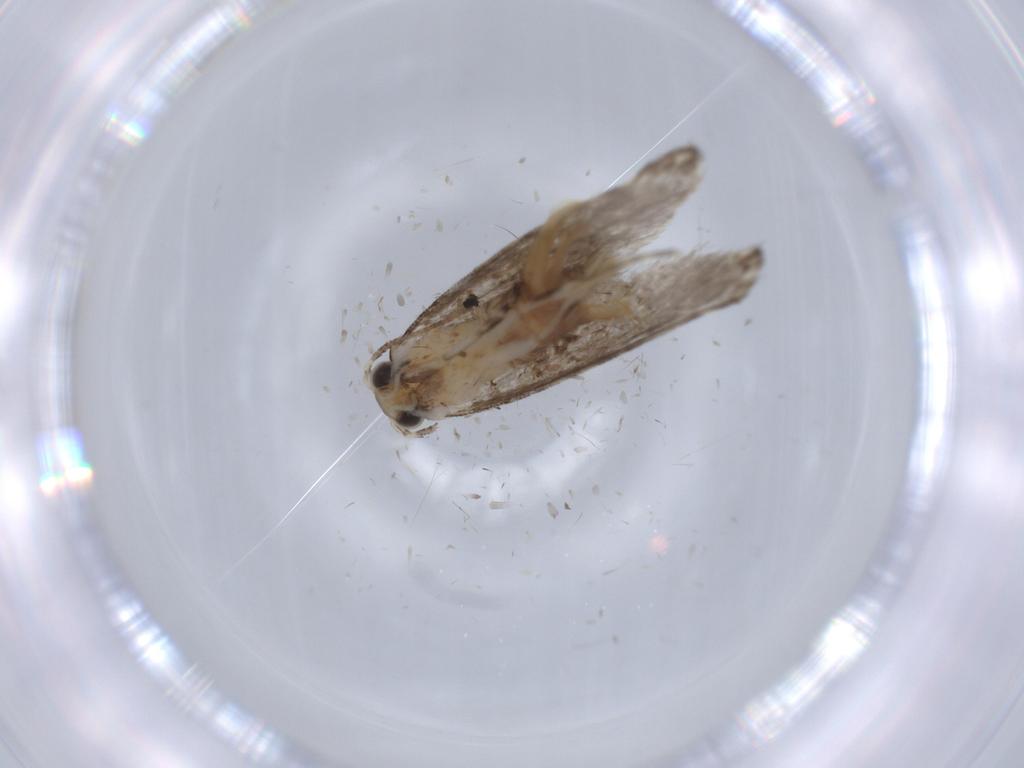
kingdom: Animalia
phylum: Arthropoda
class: Insecta
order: Lepidoptera
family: Tineidae
